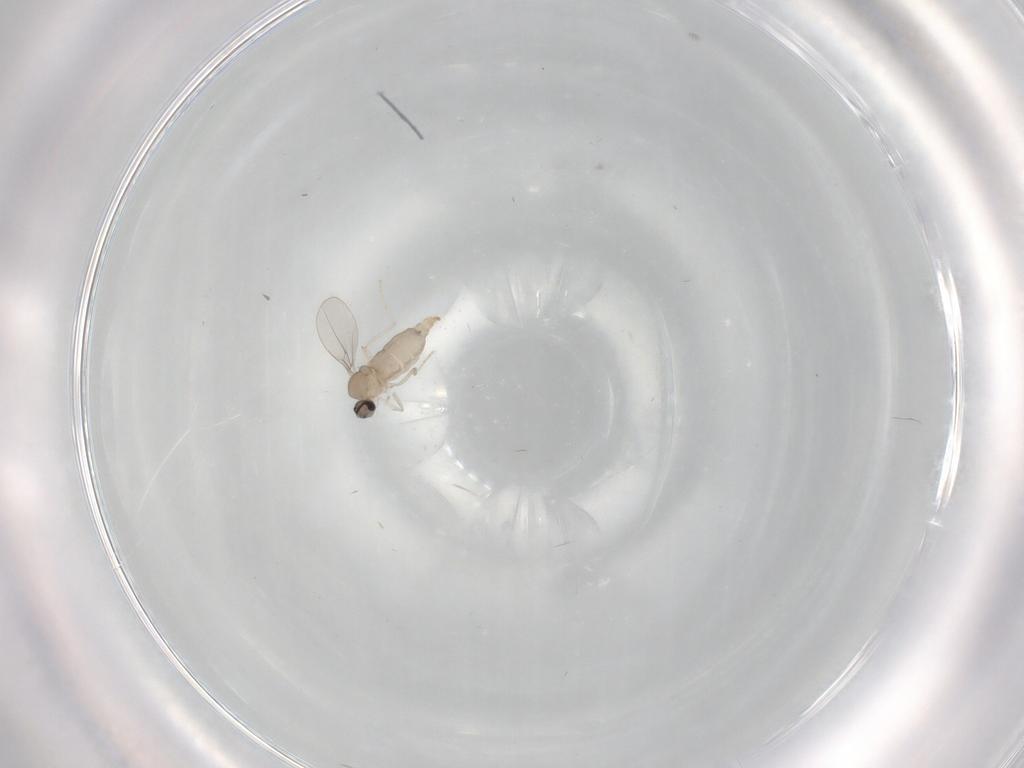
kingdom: Animalia
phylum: Arthropoda
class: Insecta
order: Diptera
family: Cecidomyiidae
